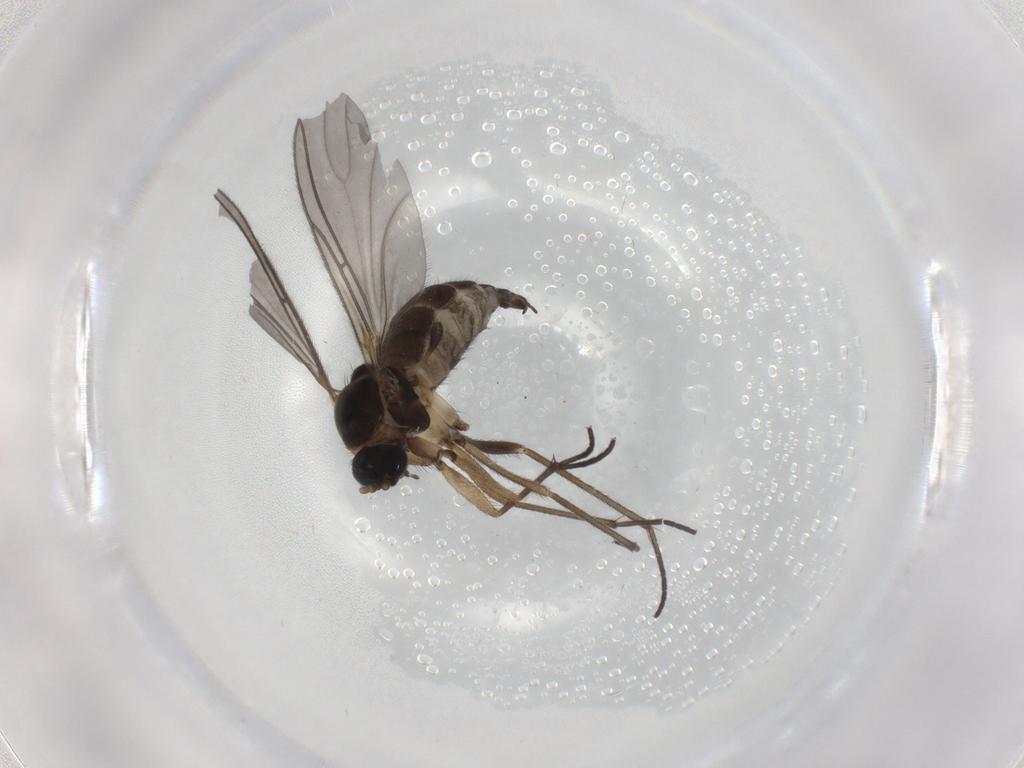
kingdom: Animalia
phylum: Arthropoda
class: Insecta
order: Diptera
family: Sciaridae
